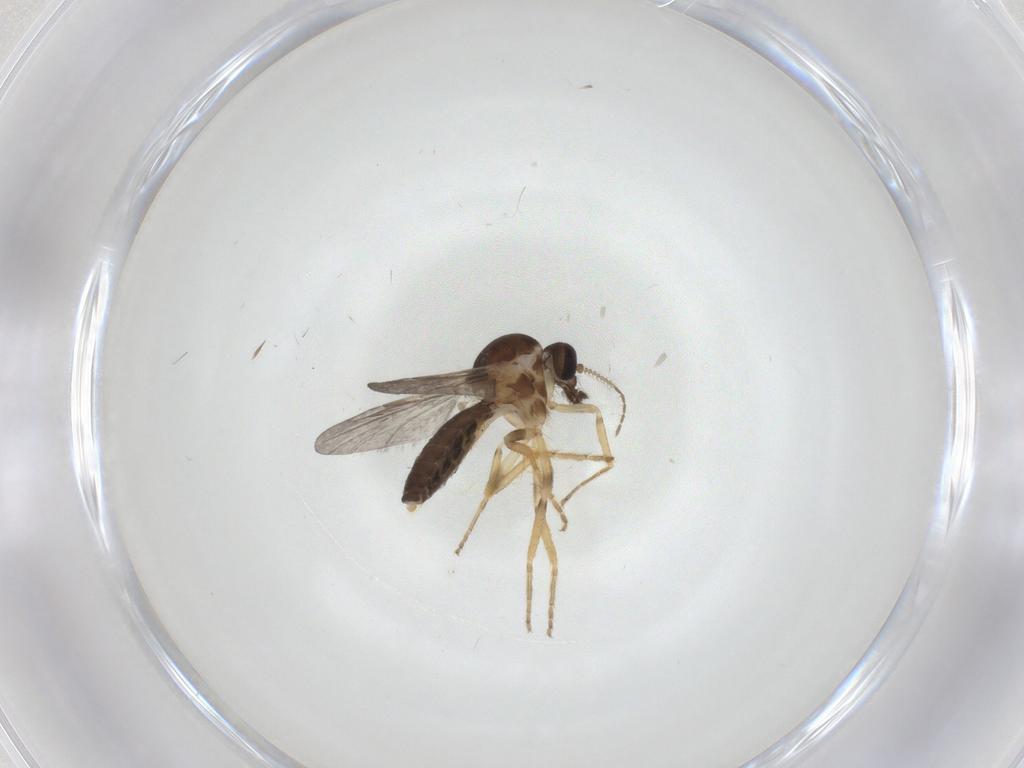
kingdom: Animalia
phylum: Arthropoda
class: Insecta
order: Diptera
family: Ceratopogonidae
